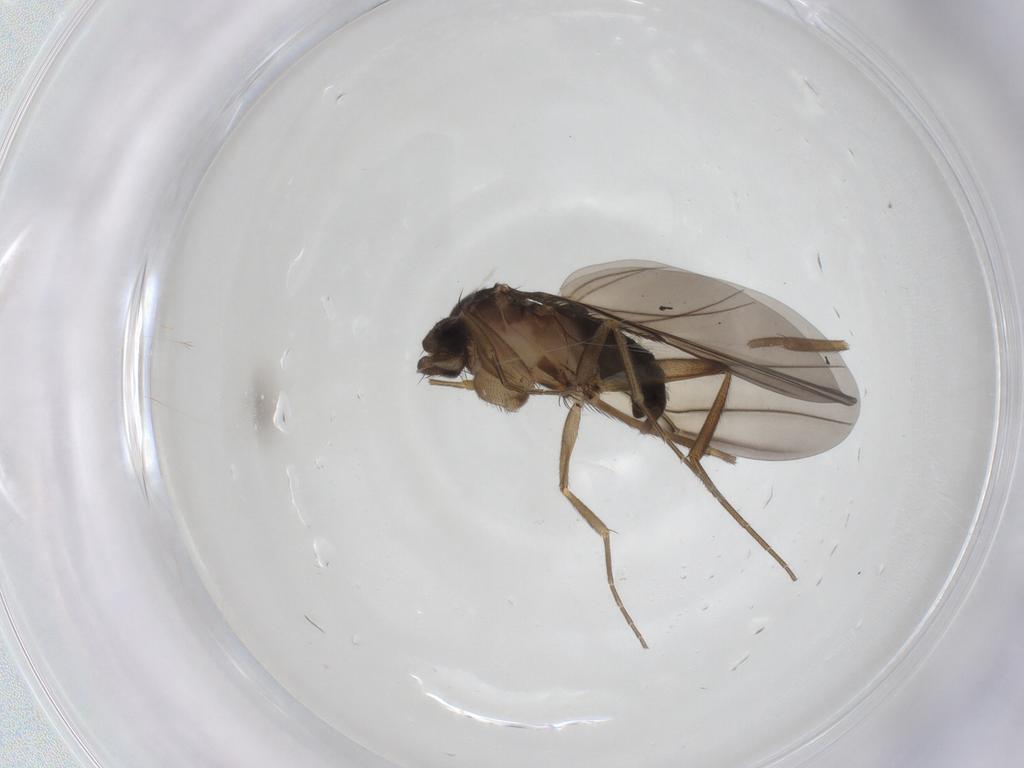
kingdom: Animalia
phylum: Arthropoda
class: Insecta
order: Diptera
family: Phoridae
